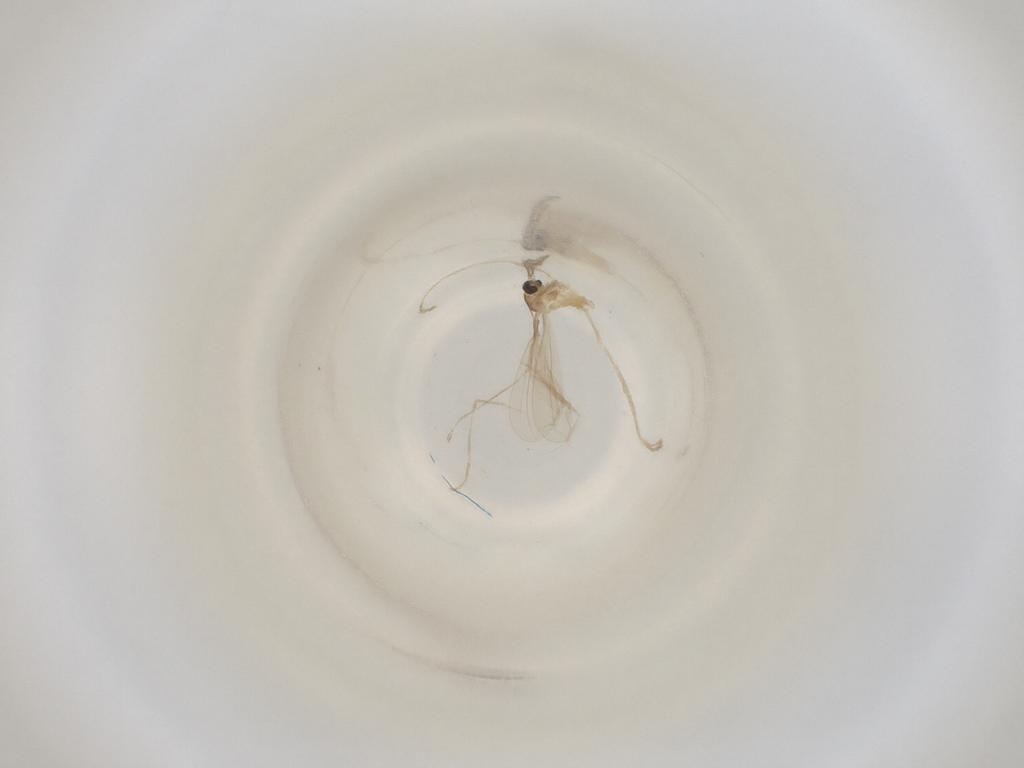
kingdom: Animalia
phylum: Arthropoda
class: Insecta
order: Diptera
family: Cecidomyiidae
